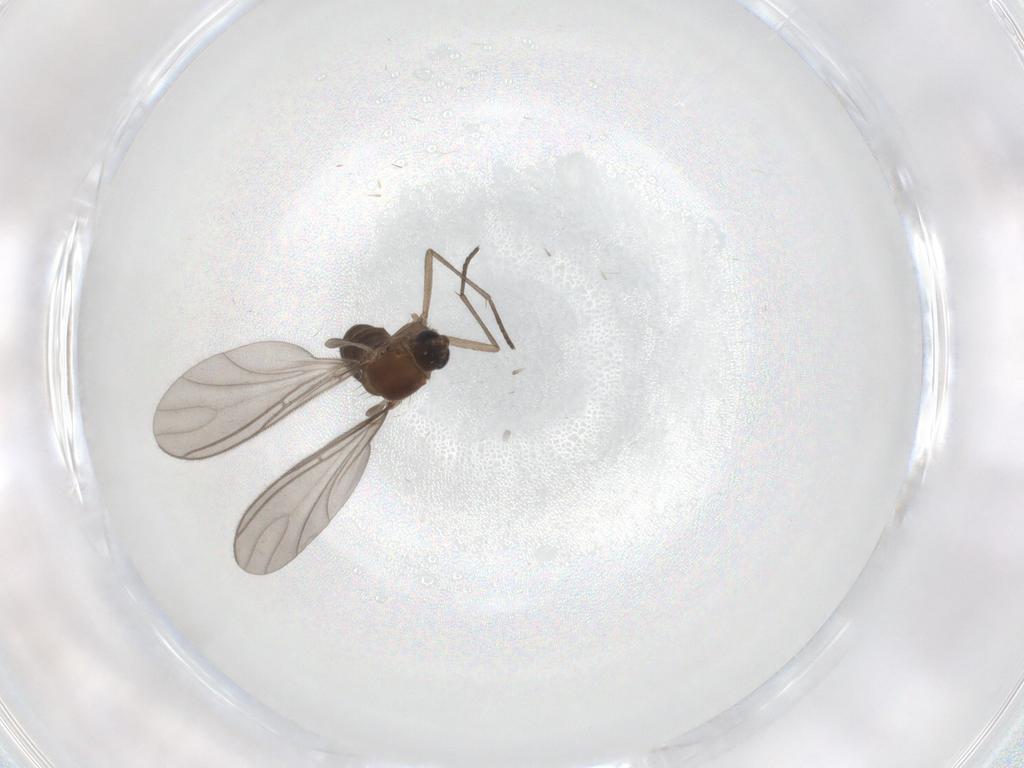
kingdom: Animalia
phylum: Arthropoda
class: Insecta
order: Diptera
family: Sciaridae
